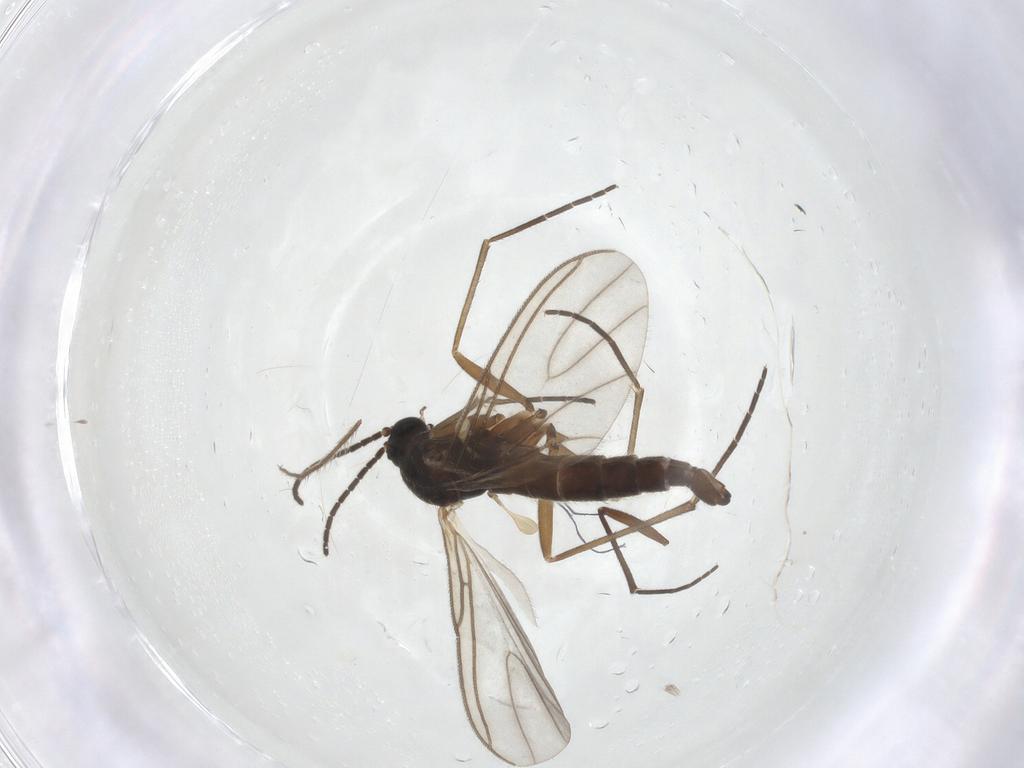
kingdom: Animalia
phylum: Arthropoda
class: Insecta
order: Diptera
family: Sciaridae
